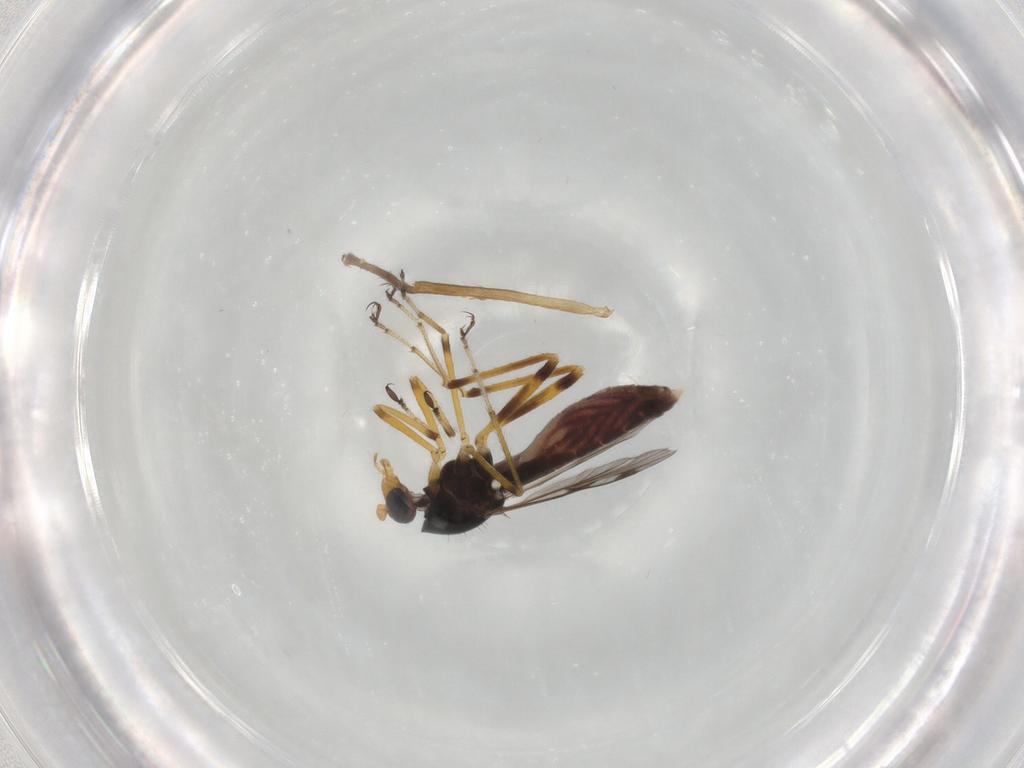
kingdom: Animalia
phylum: Arthropoda
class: Insecta
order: Diptera
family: Ceratopogonidae
